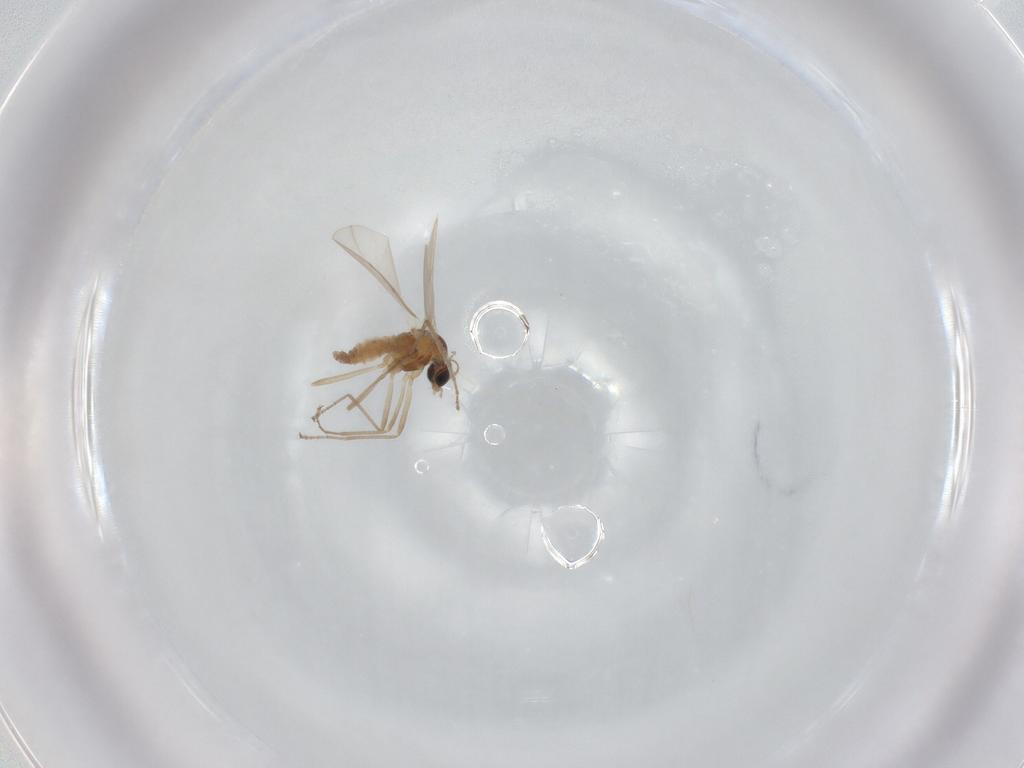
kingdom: Animalia
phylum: Arthropoda
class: Insecta
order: Diptera
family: Cecidomyiidae
